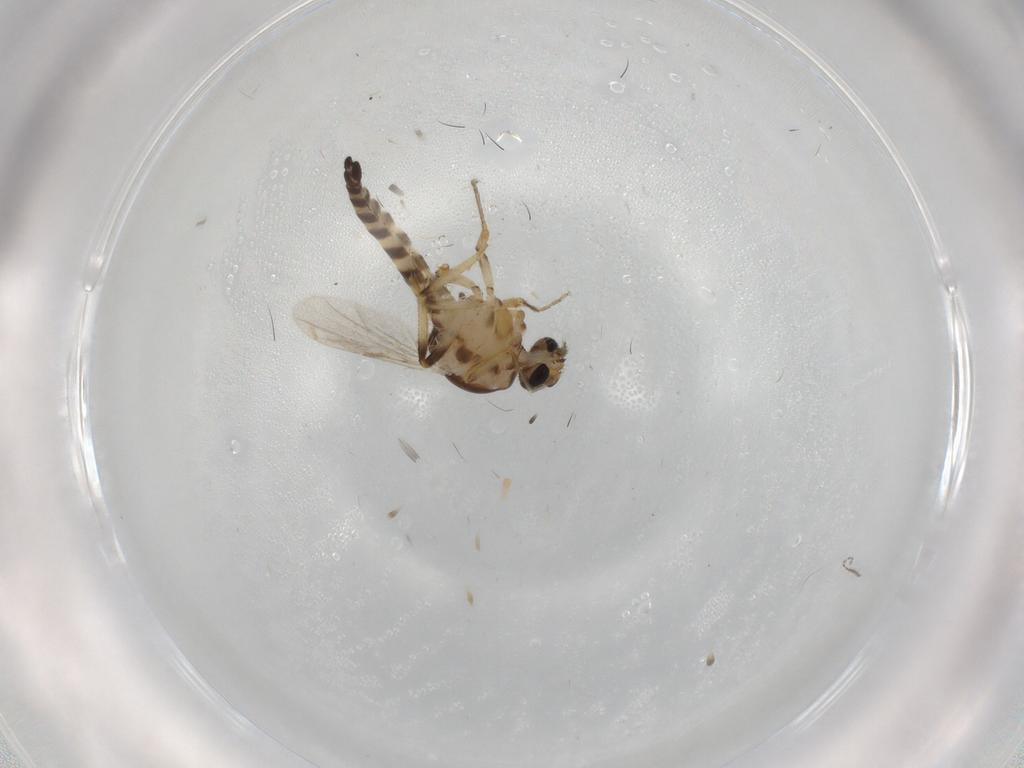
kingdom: Animalia
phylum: Arthropoda
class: Insecta
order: Diptera
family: Ceratopogonidae
